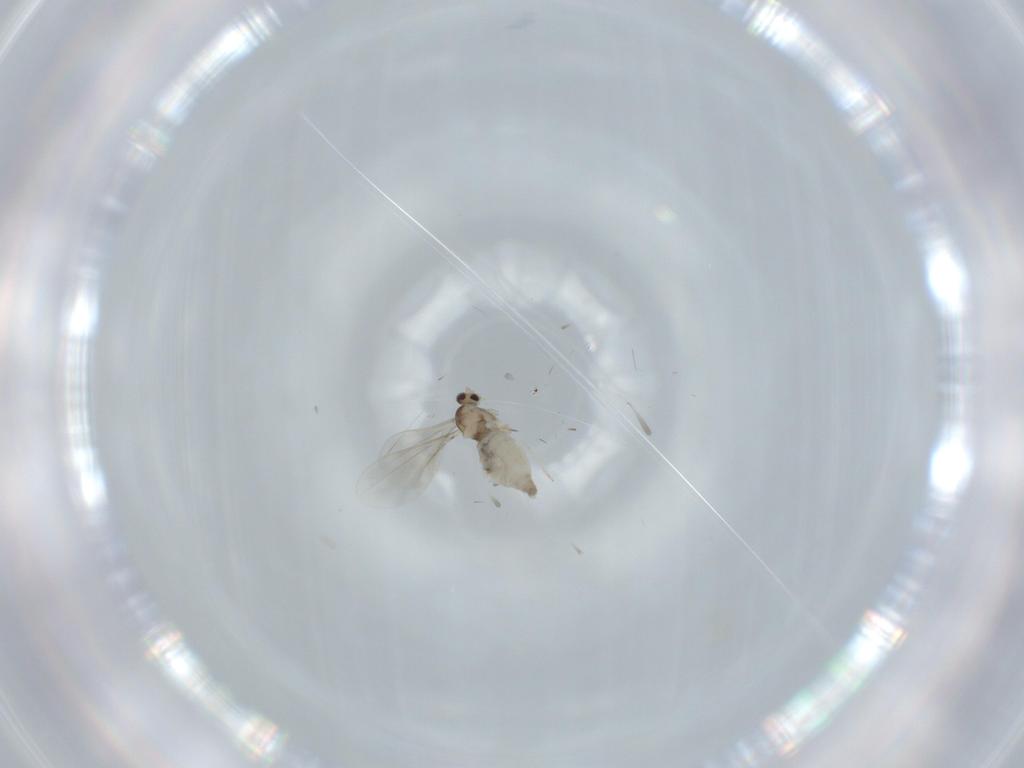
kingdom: Animalia
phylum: Arthropoda
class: Insecta
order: Diptera
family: Cecidomyiidae
